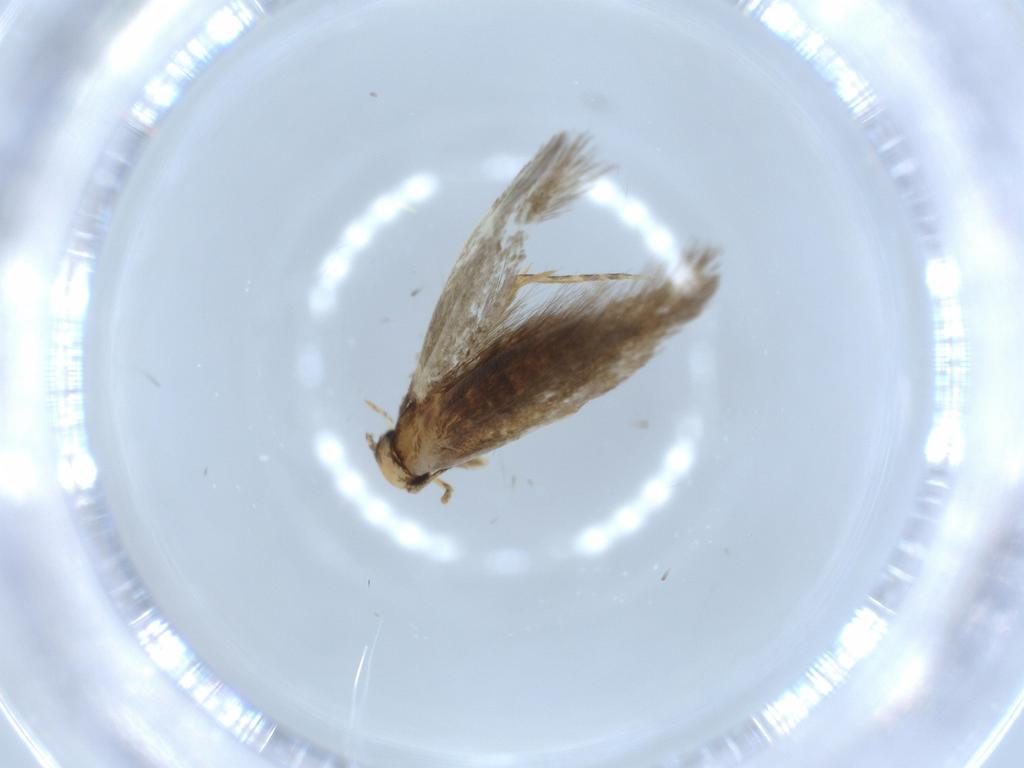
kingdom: Animalia
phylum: Arthropoda
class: Insecta
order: Lepidoptera
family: Tineidae
